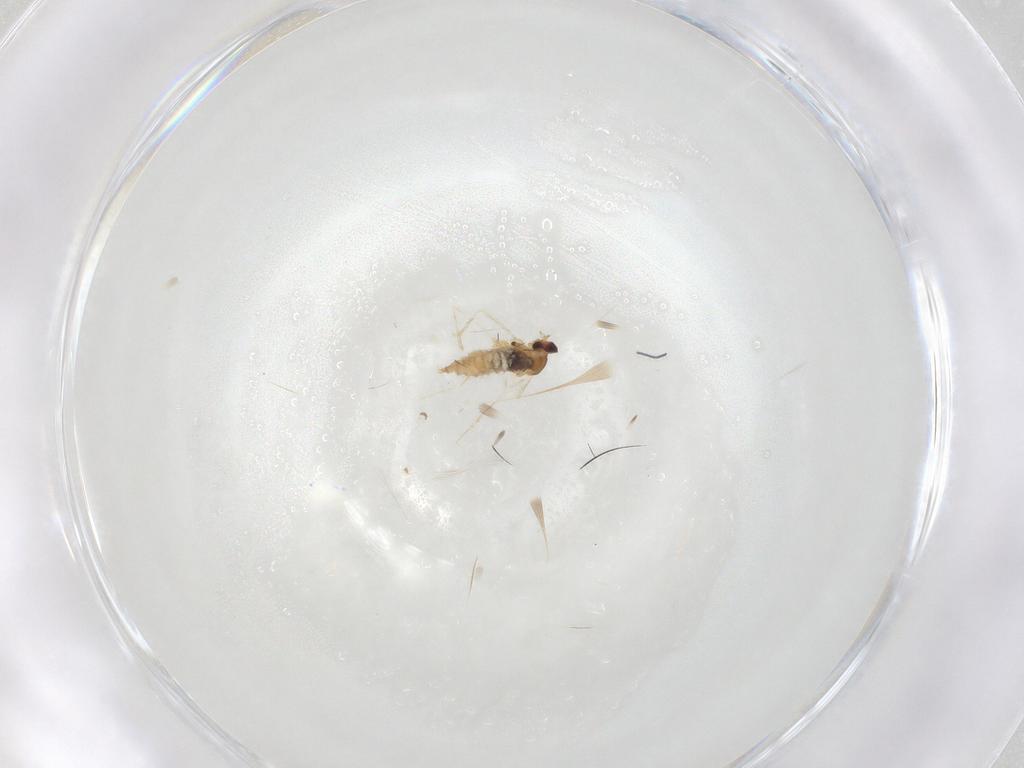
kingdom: Animalia
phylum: Arthropoda
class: Insecta
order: Diptera
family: Cecidomyiidae
